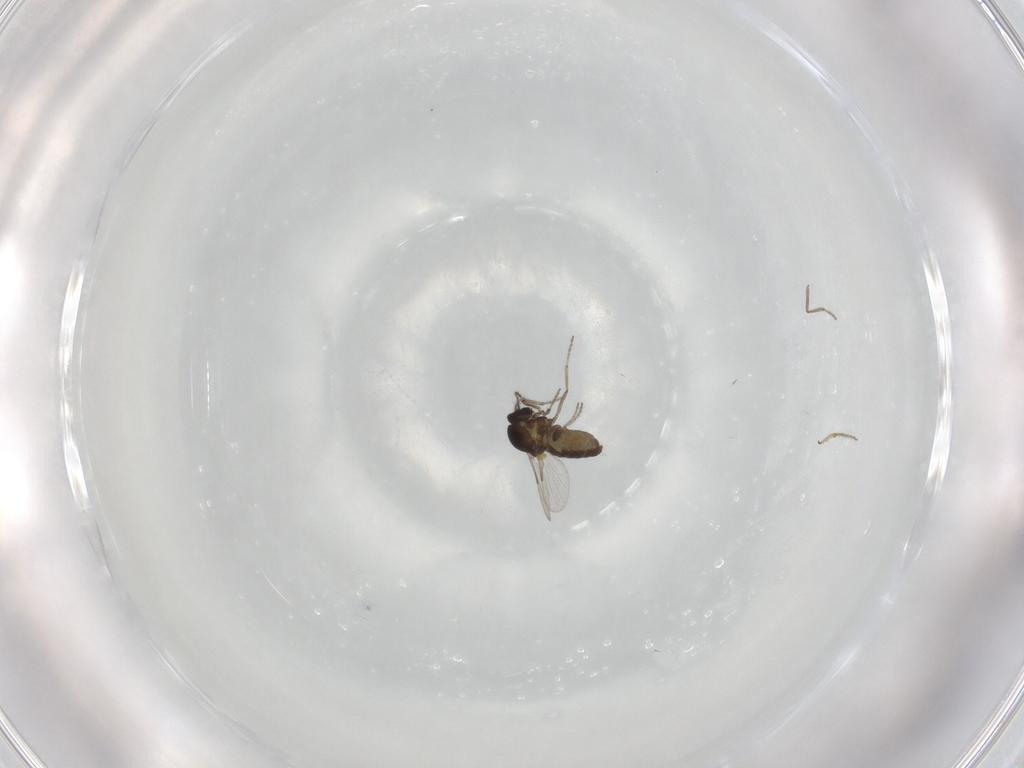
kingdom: Animalia
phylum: Arthropoda
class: Insecta
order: Diptera
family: Ceratopogonidae
